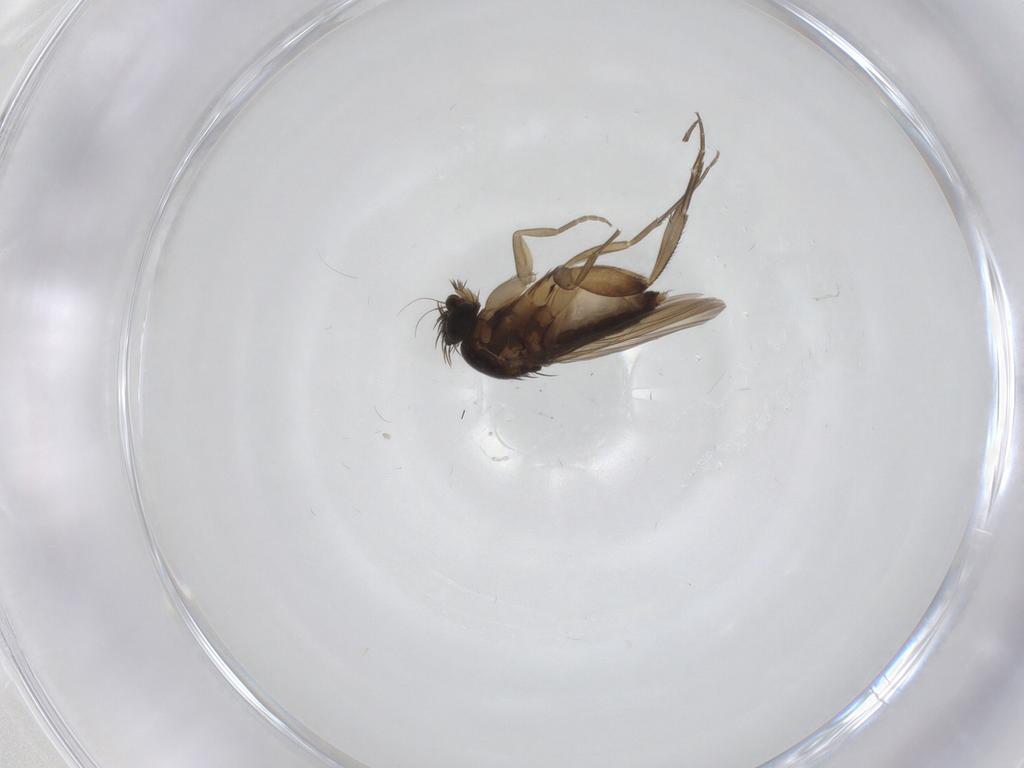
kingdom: Animalia
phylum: Arthropoda
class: Insecta
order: Diptera
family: Phoridae
